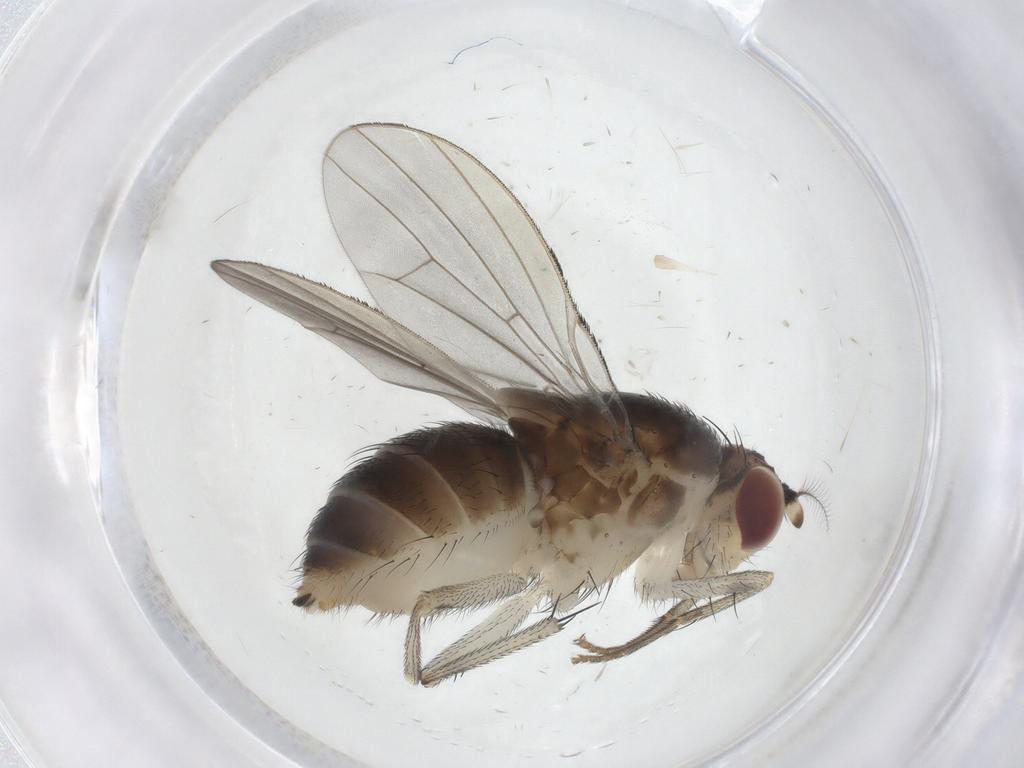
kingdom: Animalia
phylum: Arthropoda
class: Insecta
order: Diptera
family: Lauxaniidae
